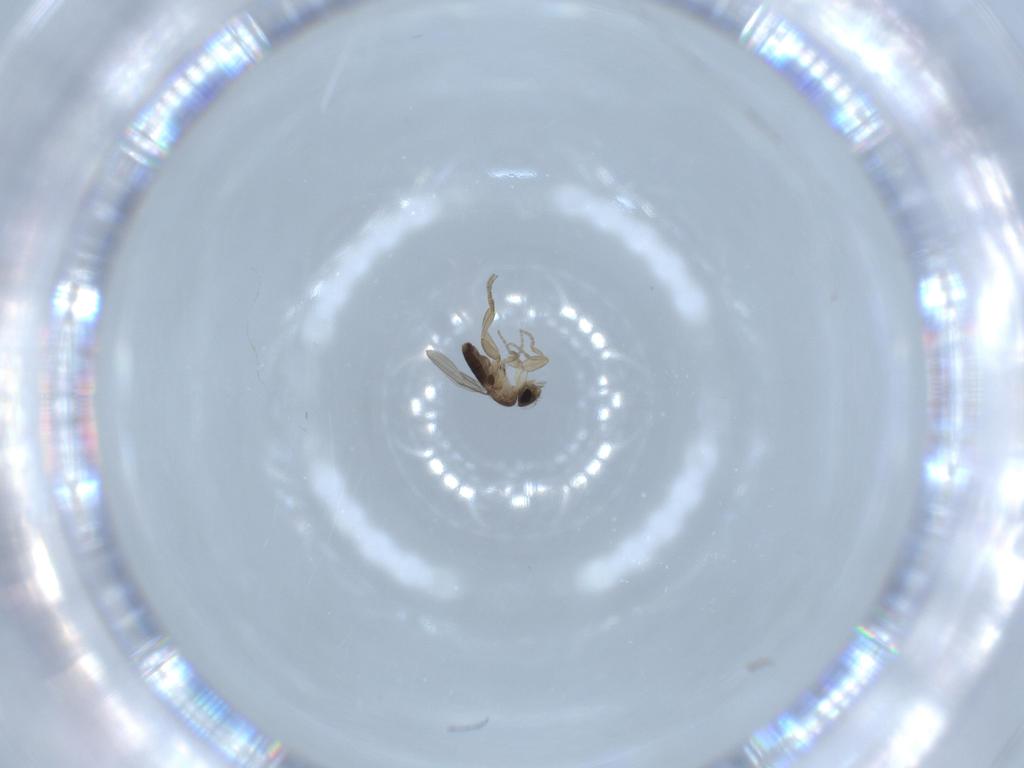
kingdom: Animalia
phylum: Arthropoda
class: Insecta
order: Diptera
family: Phoridae
